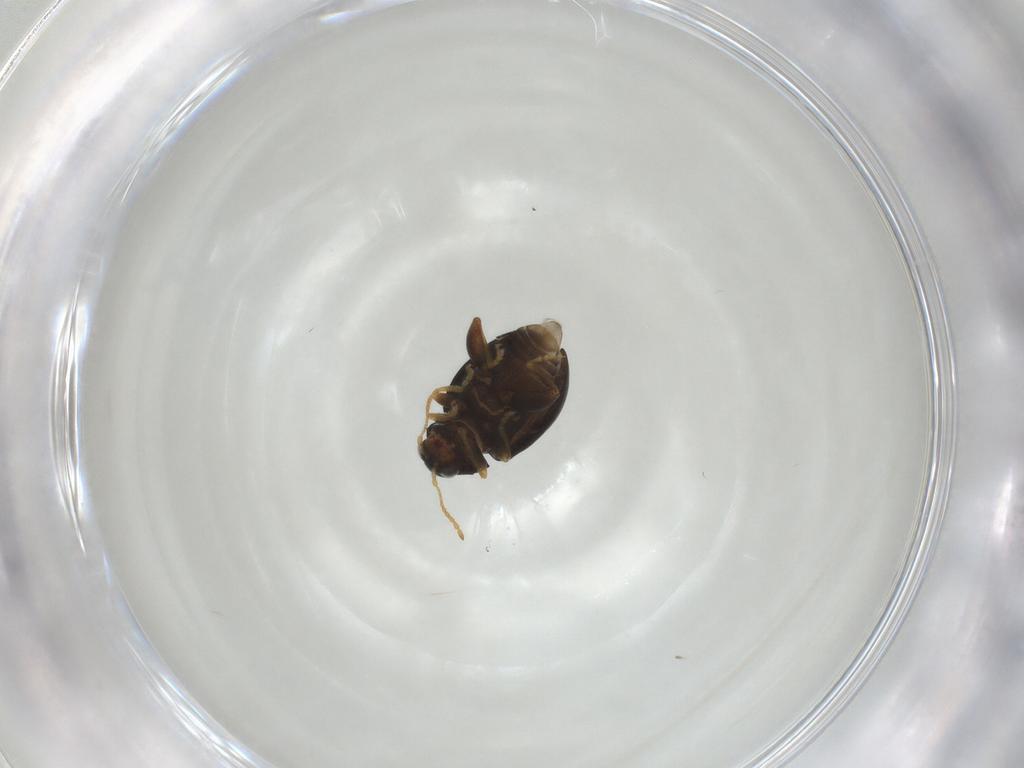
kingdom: Animalia
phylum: Arthropoda
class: Insecta
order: Coleoptera
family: Chrysomelidae
